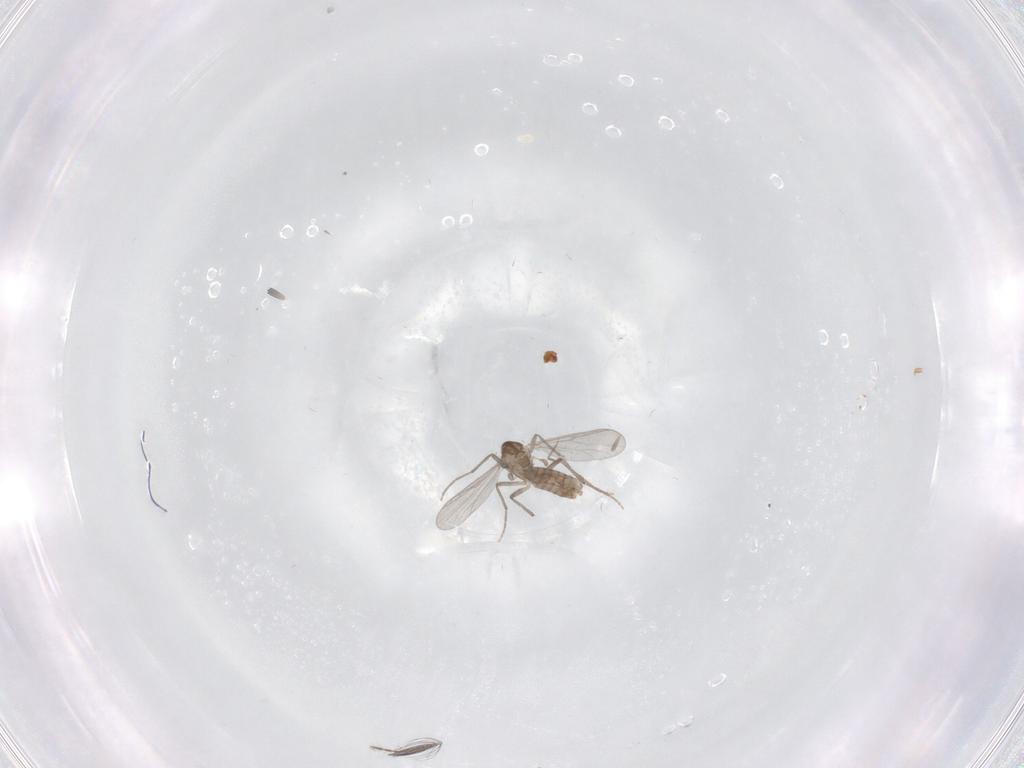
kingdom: Animalia
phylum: Arthropoda
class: Insecta
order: Diptera
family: Chironomidae
